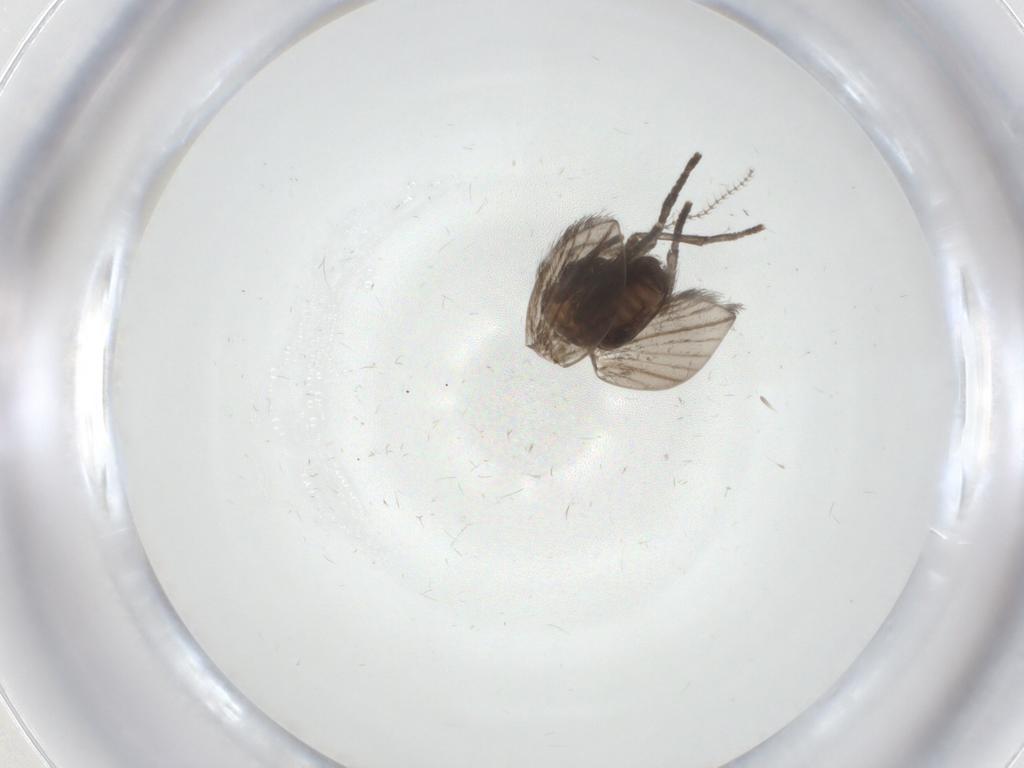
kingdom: Animalia
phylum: Arthropoda
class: Insecta
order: Diptera
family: Psychodidae
